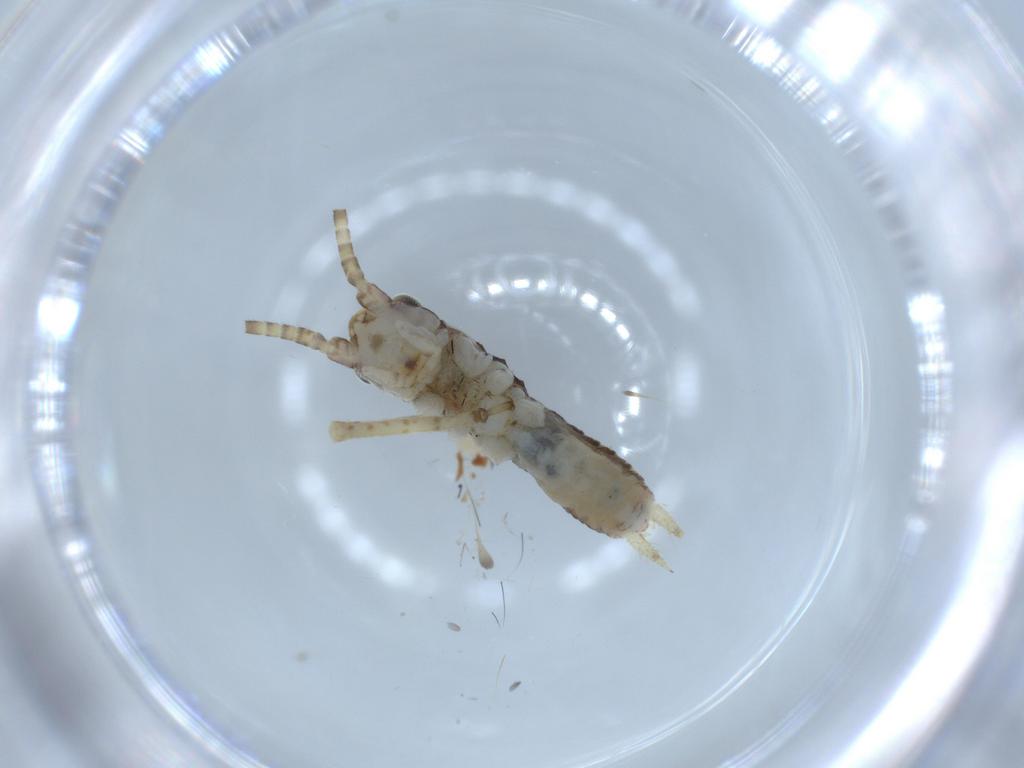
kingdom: Animalia
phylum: Arthropoda
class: Insecta
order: Orthoptera
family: Gryllidae
